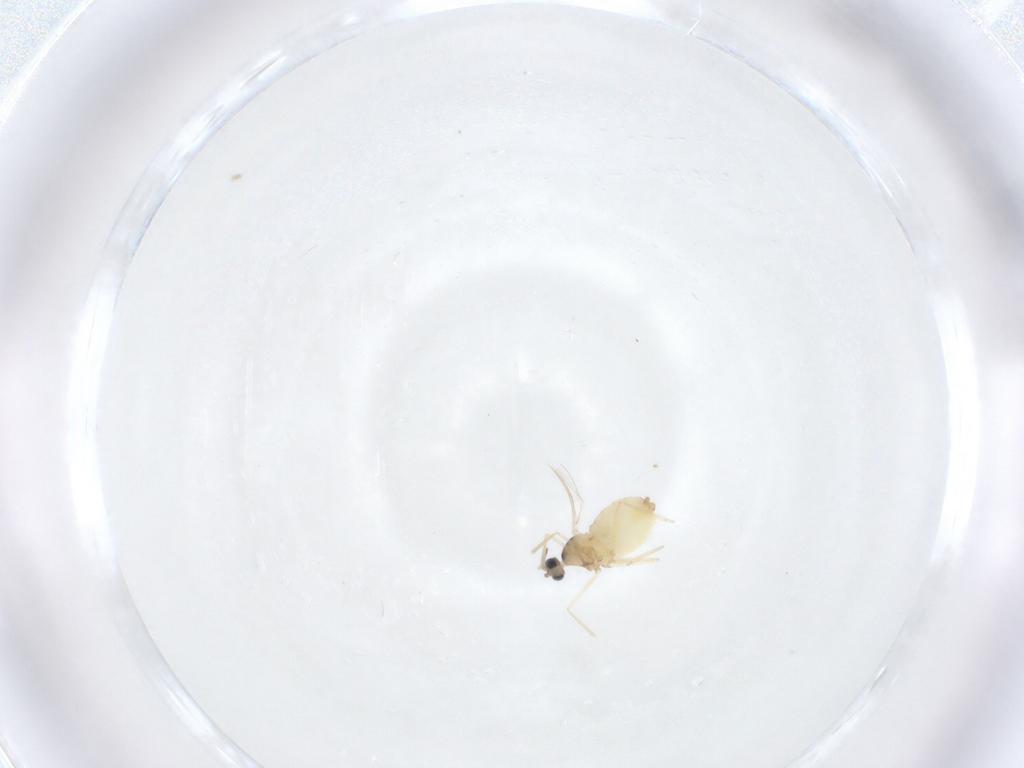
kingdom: Animalia
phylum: Arthropoda
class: Insecta
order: Diptera
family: Cecidomyiidae
